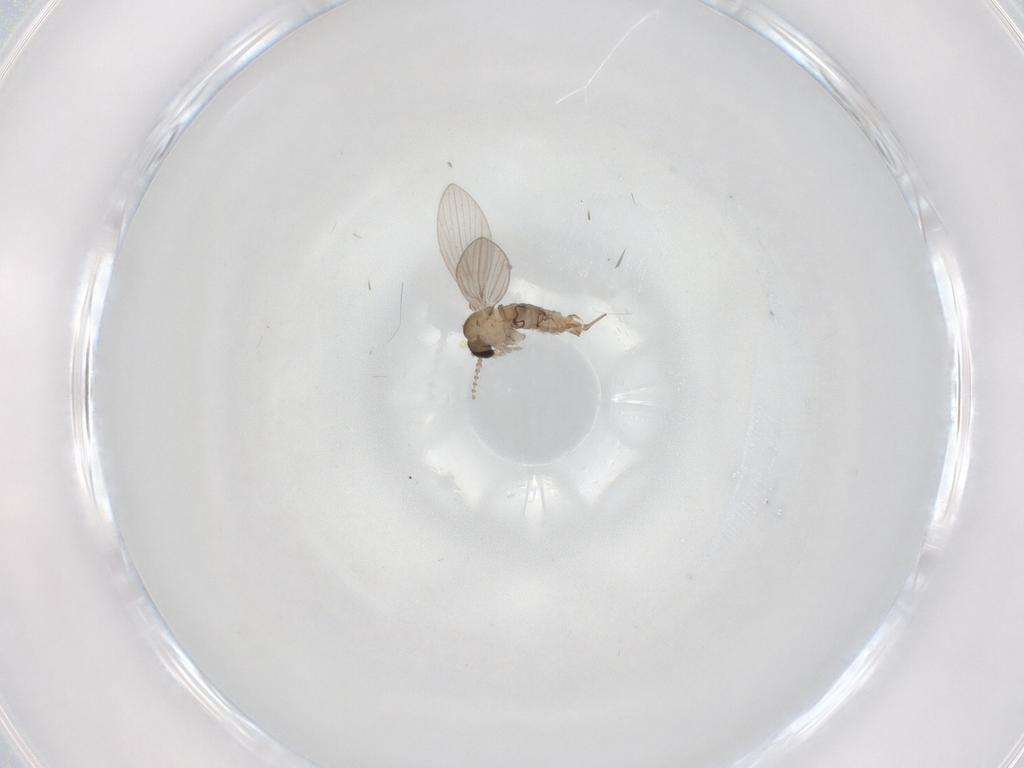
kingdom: Animalia
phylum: Arthropoda
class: Insecta
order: Diptera
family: Psychodidae
